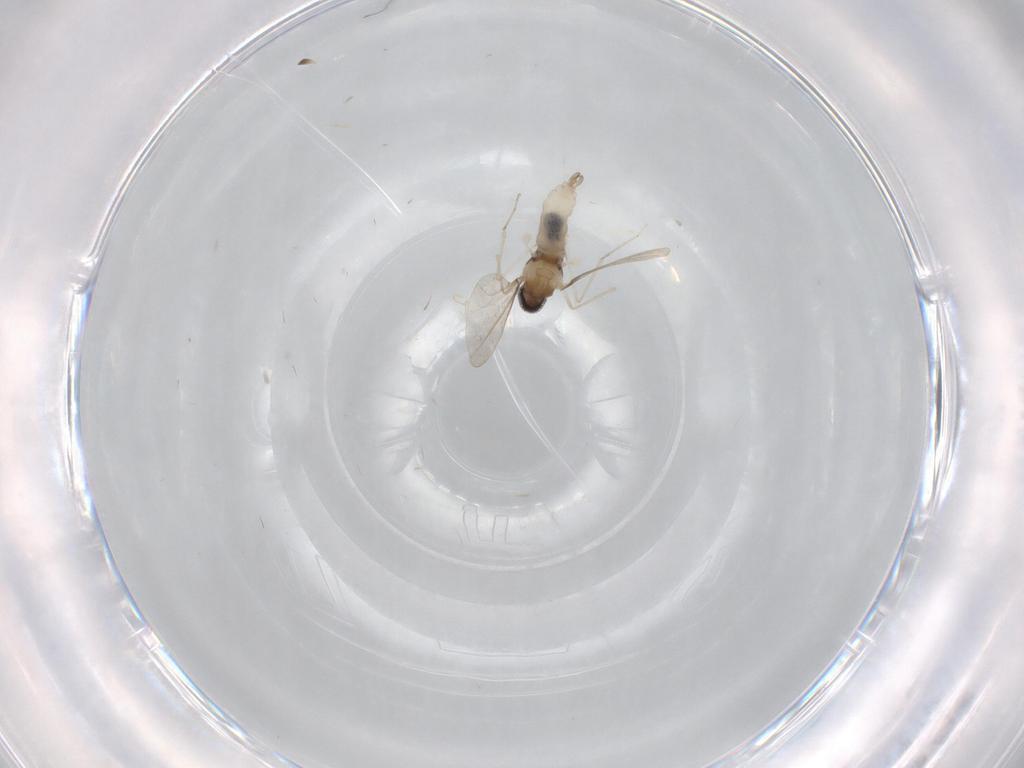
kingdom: Animalia
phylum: Arthropoda
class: Insecta
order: Diptera
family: Cecidomyiidae
